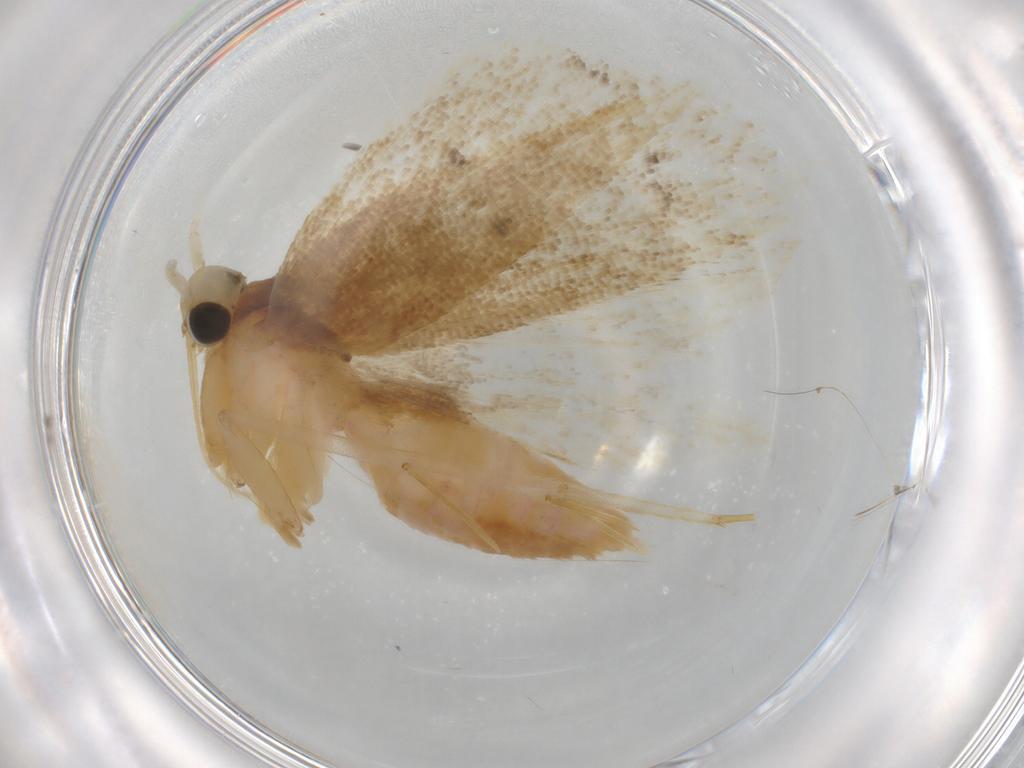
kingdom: Animalia
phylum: Arthropoda
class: Insecta
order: Lepidoptera
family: Lecithoceridae
